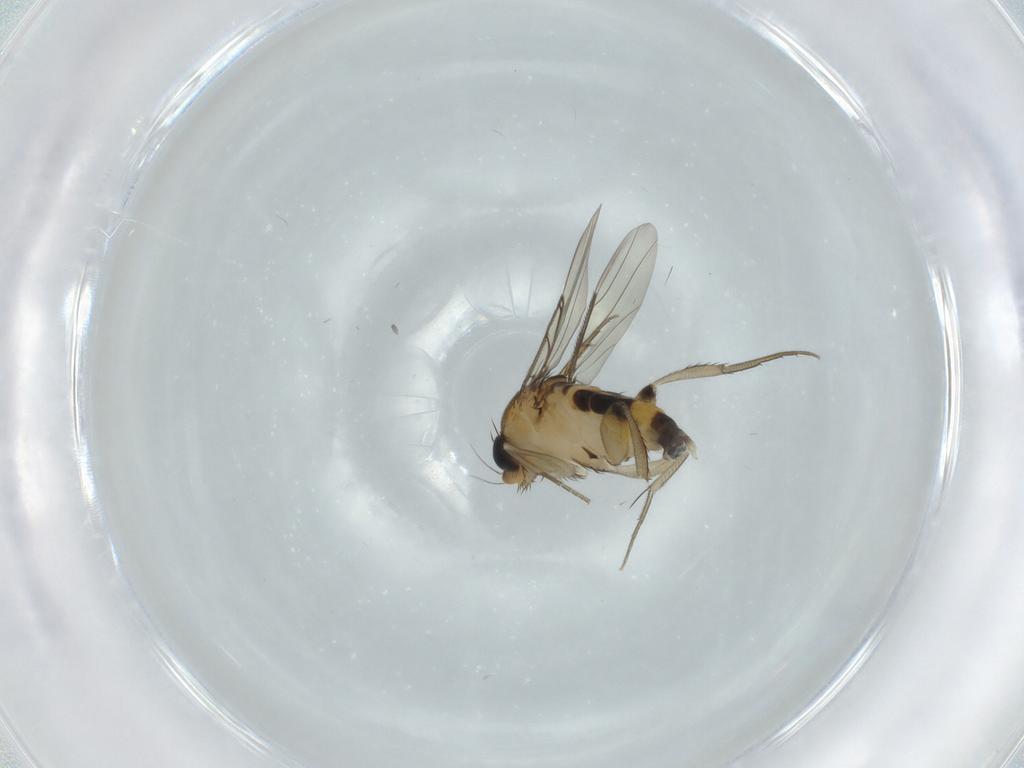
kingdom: Animalia
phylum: Arthropoda
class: Insecta
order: Diptera
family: Phoridae
